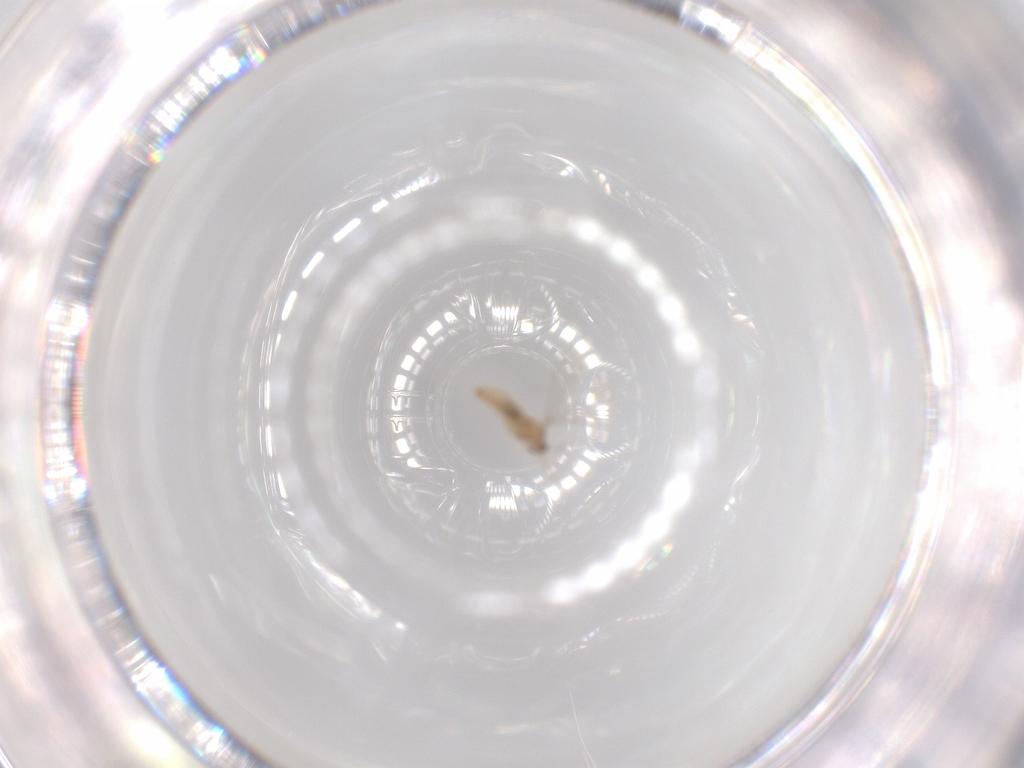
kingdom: Animalia
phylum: Arthropoda
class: Insecta
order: Diptera
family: Cecidomyiidae
